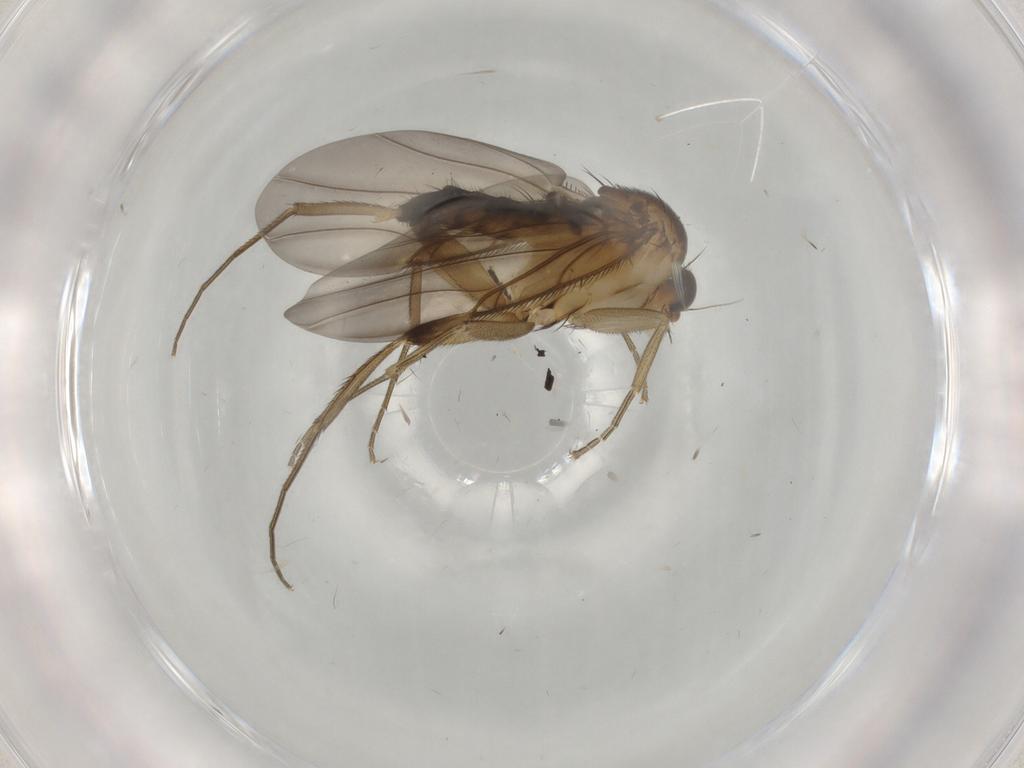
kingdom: Animalia
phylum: Arthropoda
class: Insecta
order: Diptera
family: Phoridae
